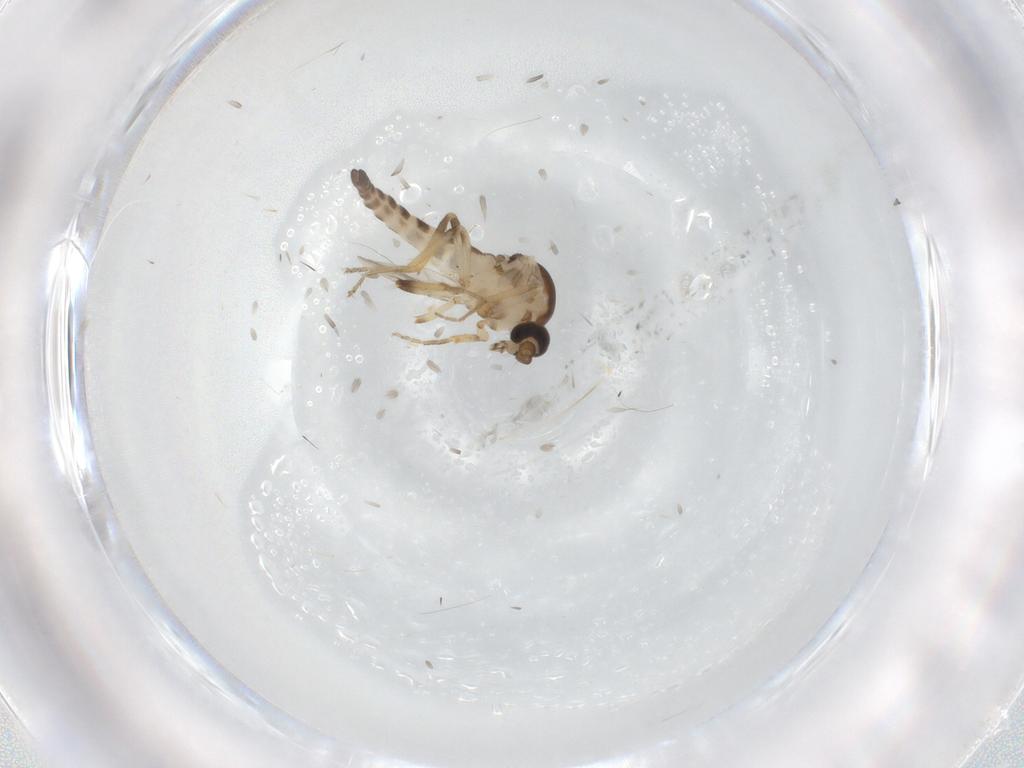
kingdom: Animalia
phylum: Arthropoda
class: Insecta
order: Diptera
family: Ceratopogonidae
